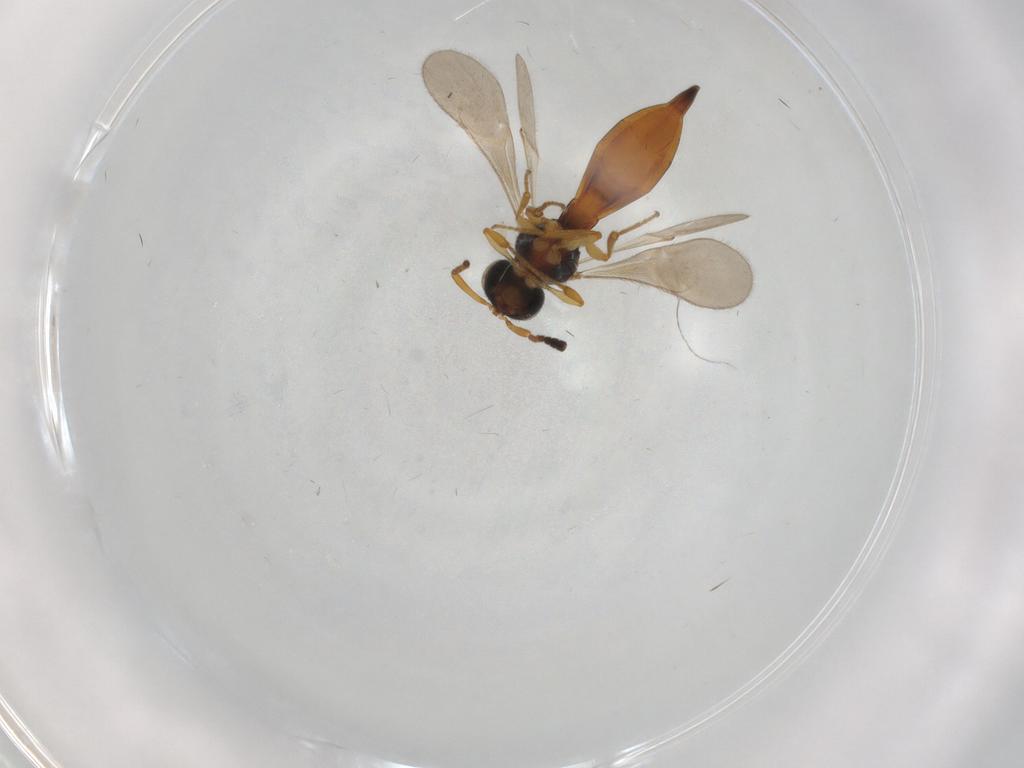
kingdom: Animalia
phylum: Arthropoda
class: Insecta
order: Hymenoptera
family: Scelionidae
